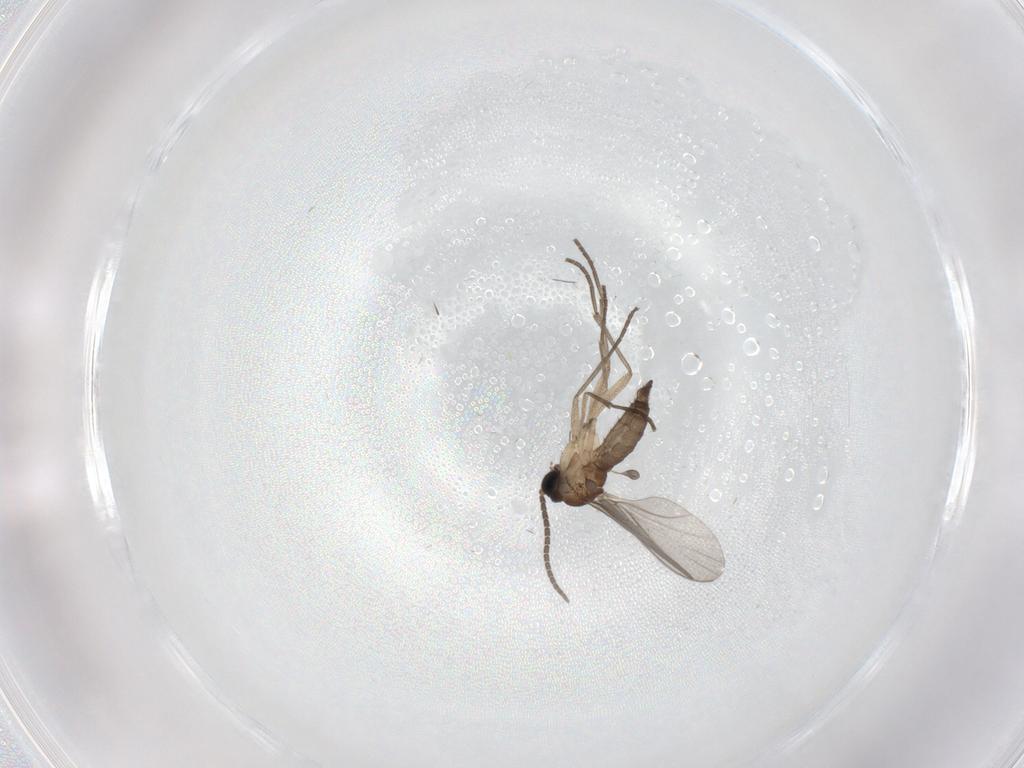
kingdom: Animalia
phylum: Arthropoda
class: Insecta
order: Diptera
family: Sciaridae
